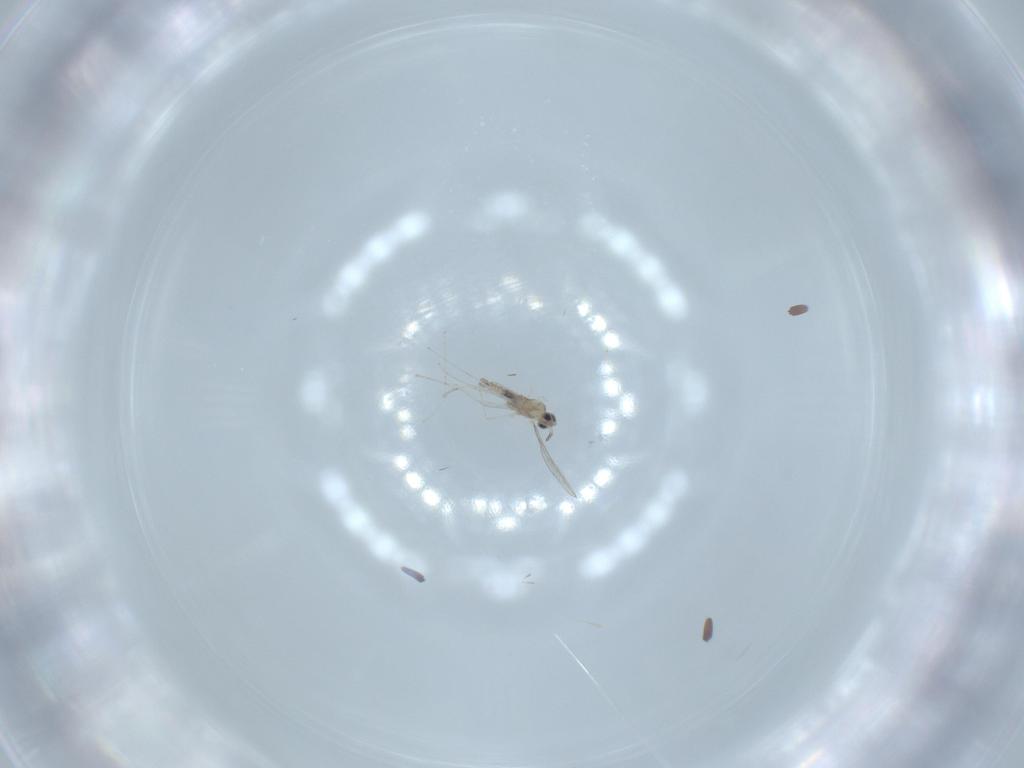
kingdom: Animalia
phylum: Arthropoda
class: Insecta
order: Diptera
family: Cecidomyiidae
